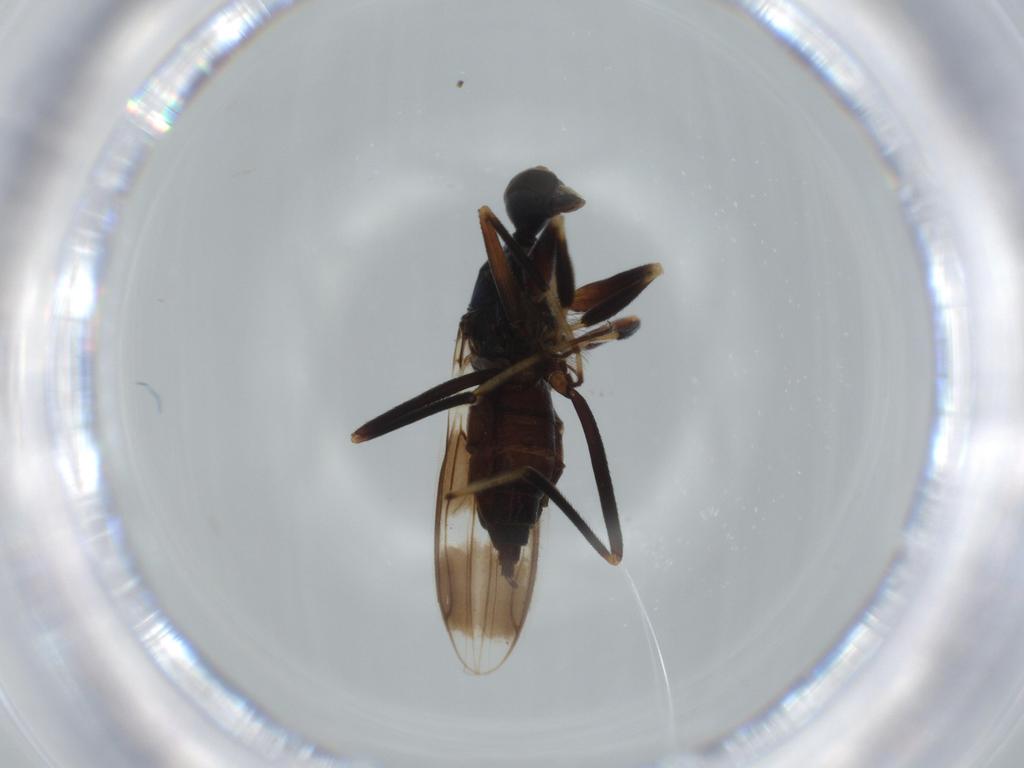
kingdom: Animalia
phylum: Arthropoda
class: Insecta
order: Diptera
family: Hybotidae
